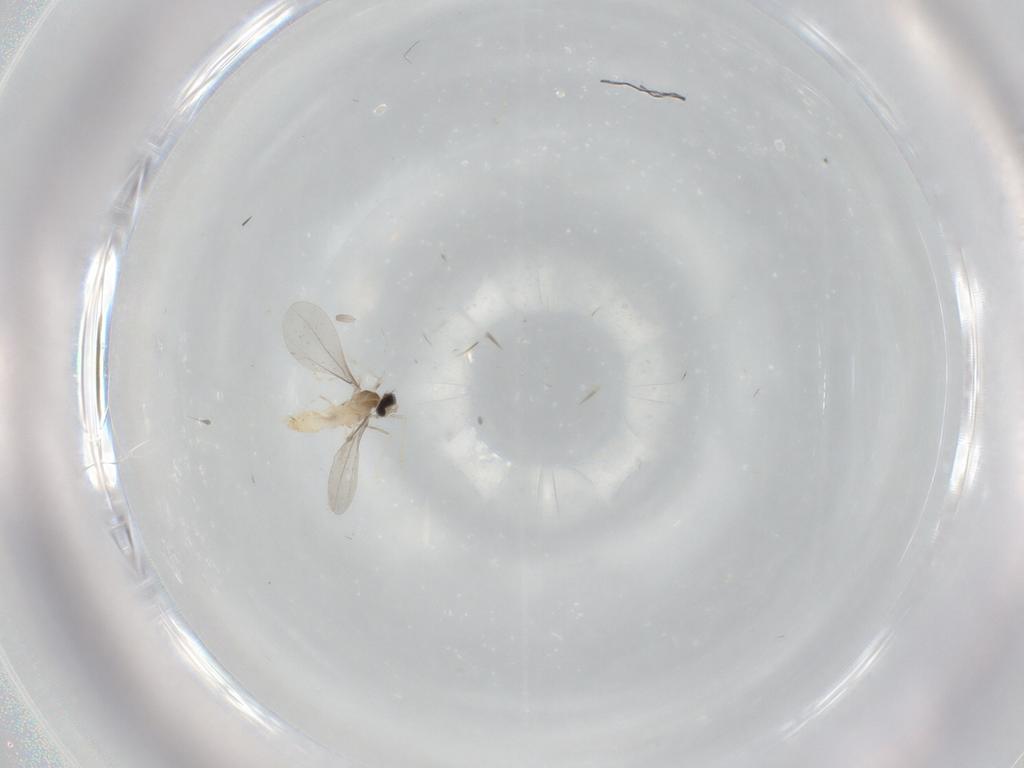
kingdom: Animalia
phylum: Arthropoda
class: Insecta
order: Diptera
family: Cecidomyiidae
